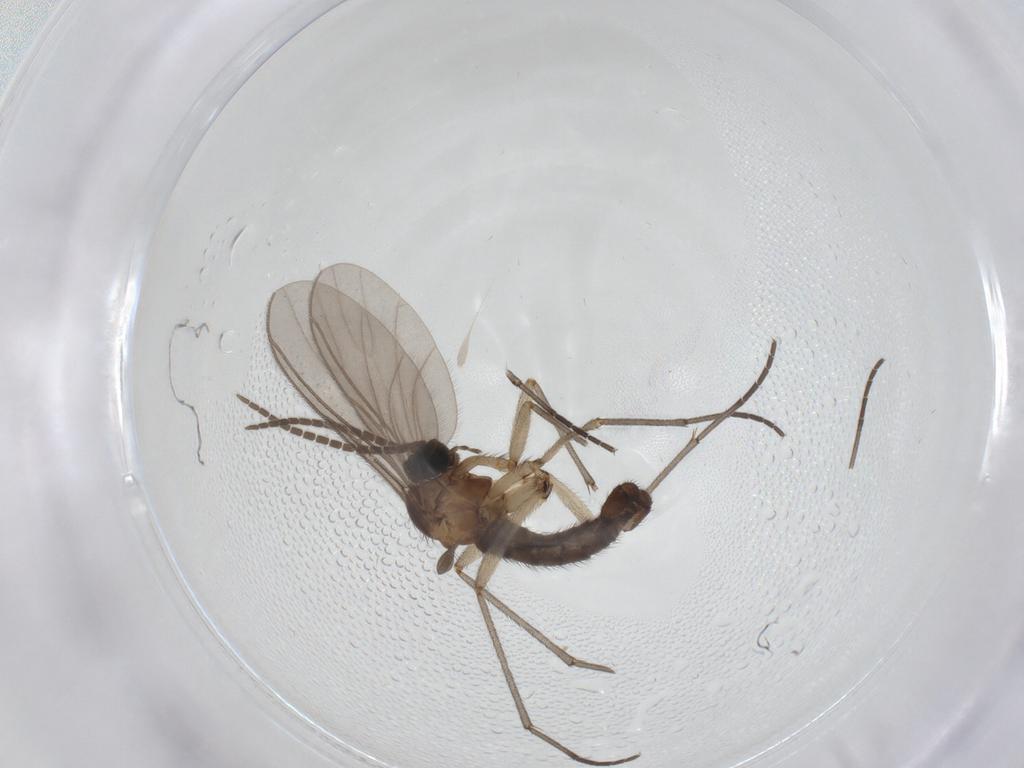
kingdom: Animalia
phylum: Arthropoda
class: Insecta
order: Diptera
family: Sciaridae
